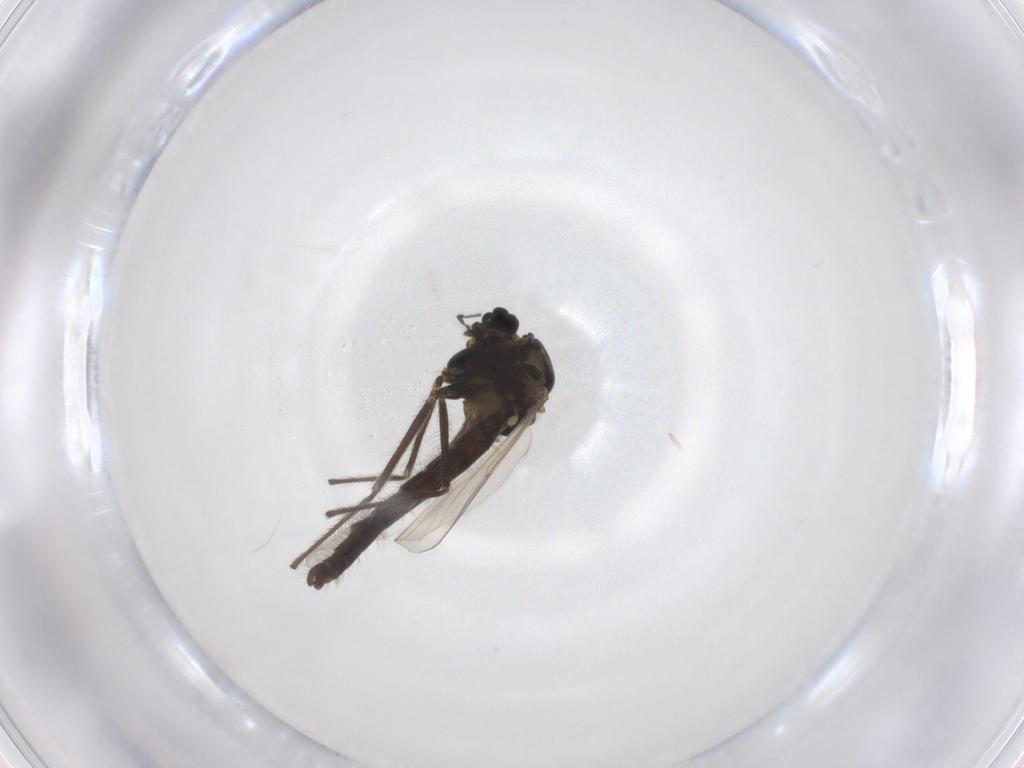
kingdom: Animalia
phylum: Arthropoda
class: Insecta
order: Diptera
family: Chironomidae
